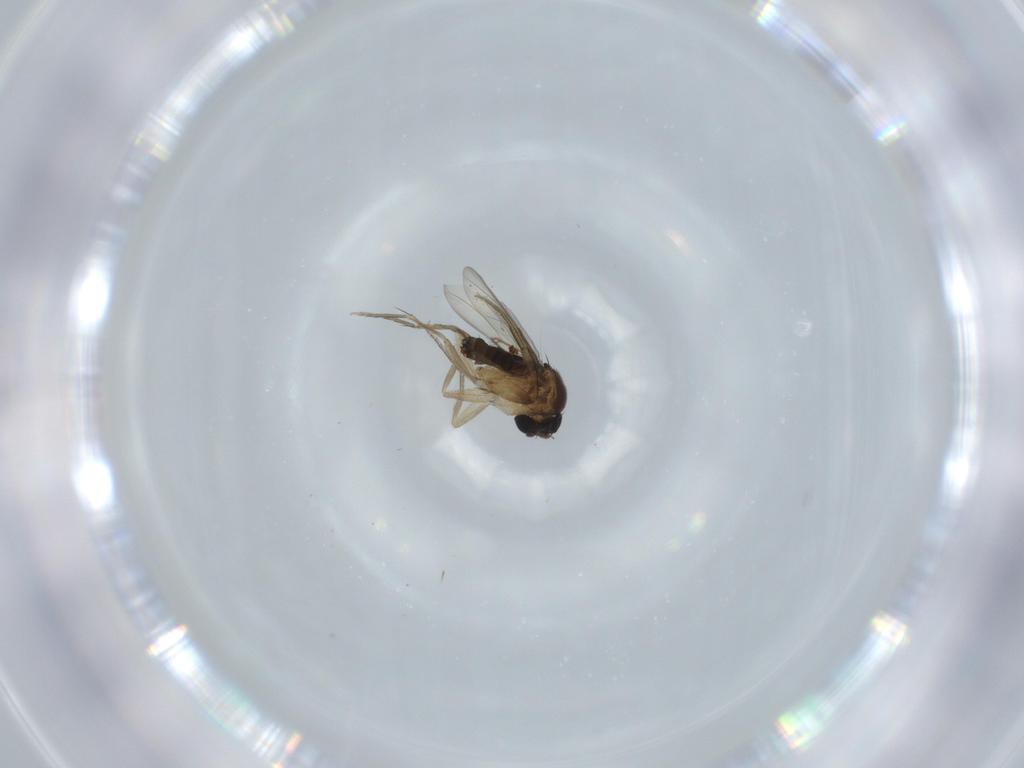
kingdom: Animalia
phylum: Arthropoda
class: Insecta
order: Diptera
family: Phoridae
